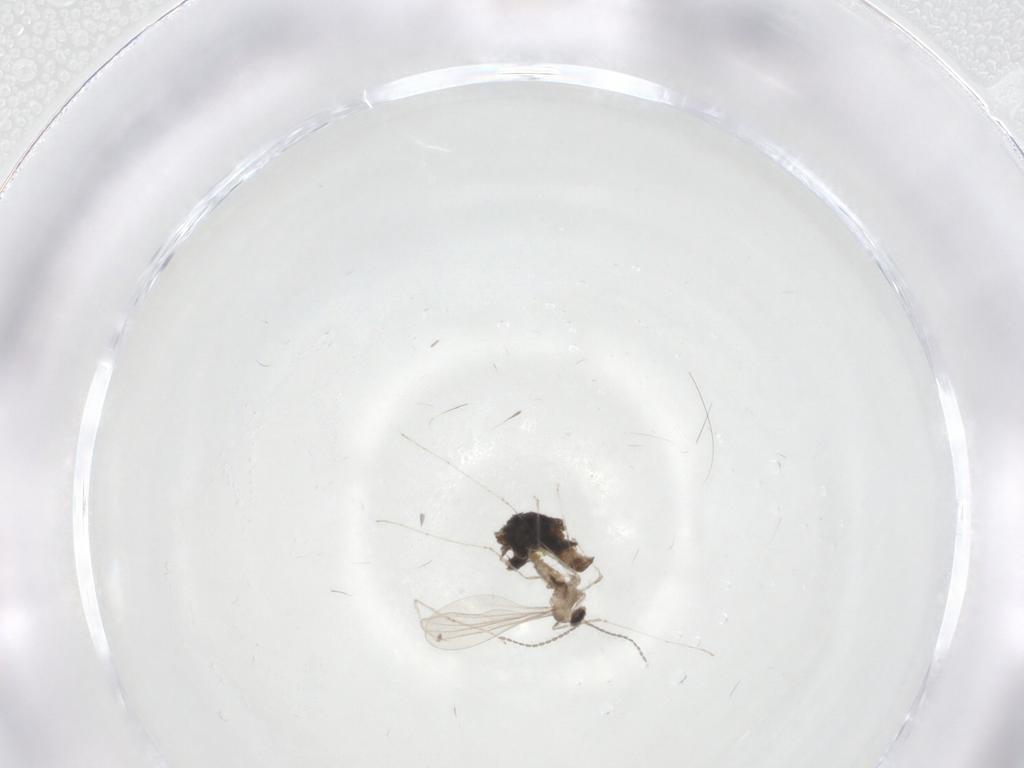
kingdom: Animalia
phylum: Arthropoda
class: Insecta
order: Diptera
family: Cecidomyiidae
